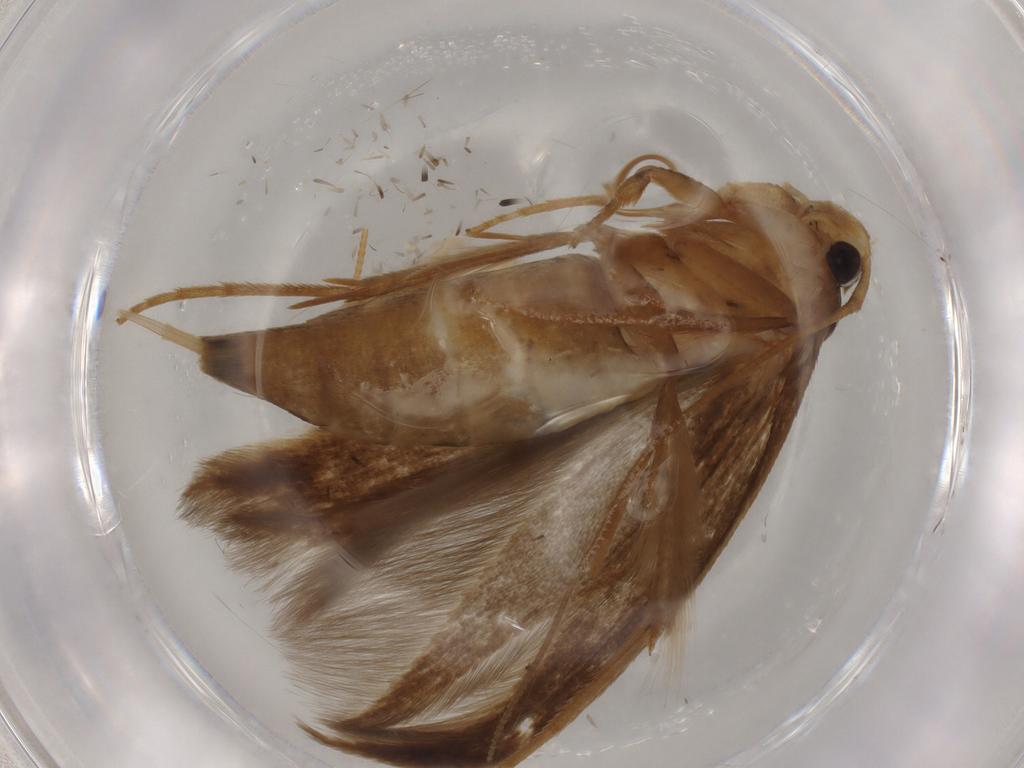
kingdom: Animalia
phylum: Arthropoda
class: Insecta
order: Lepidoptera
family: Tineidae
